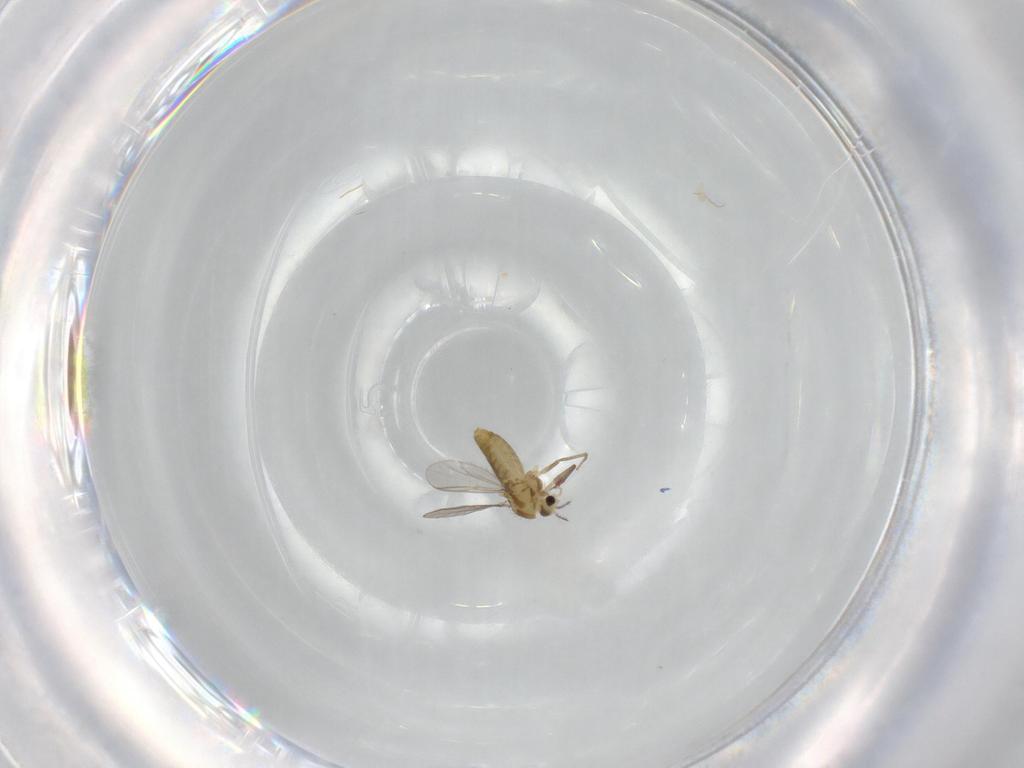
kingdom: Animalia
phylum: Arthropoda
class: Insecta
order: Diptera
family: Chironomidae
